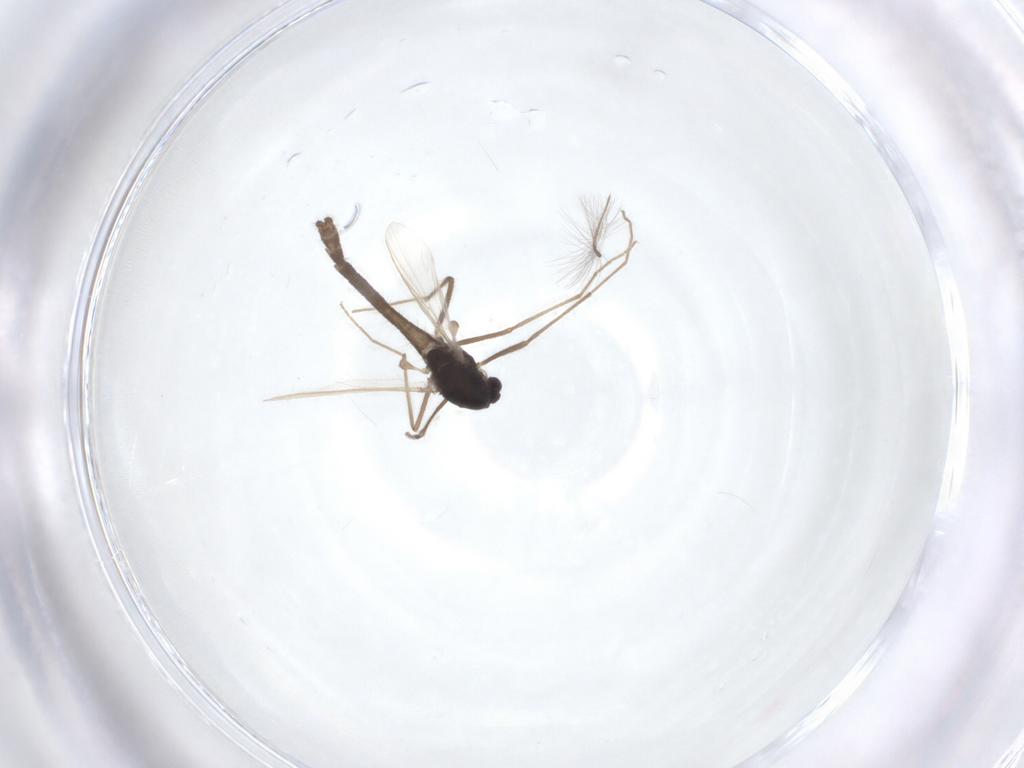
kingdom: Animalia
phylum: Arthropoda
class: Insecta
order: Diptera
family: Chironomidae
